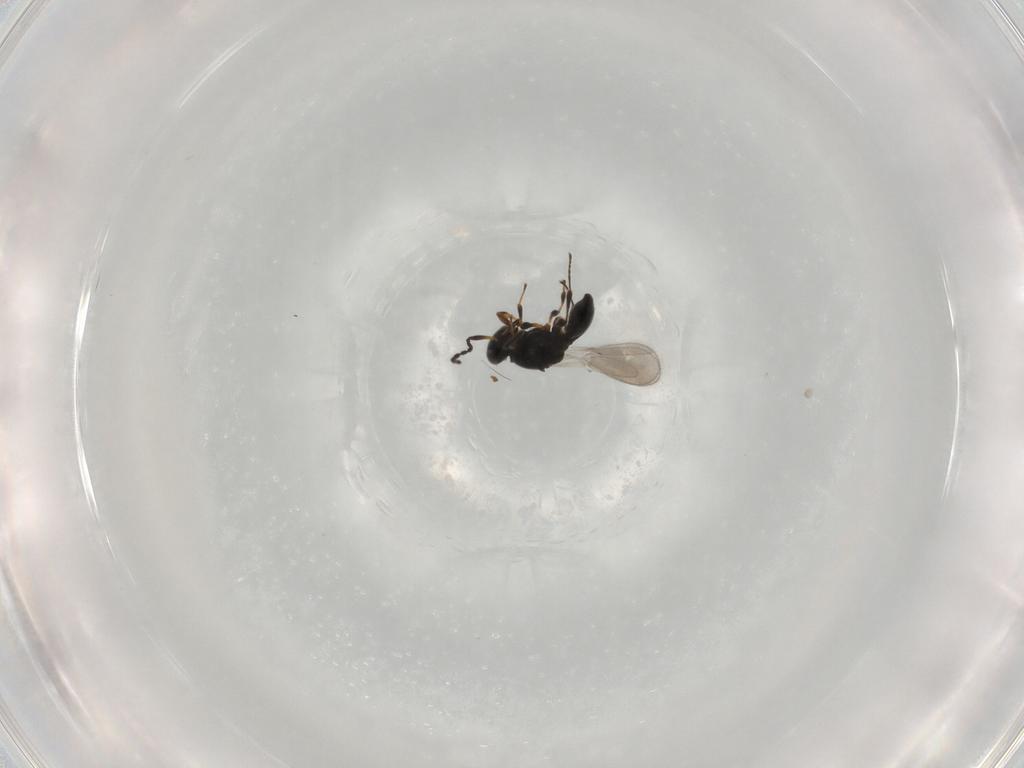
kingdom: Animalia
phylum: Arthropoda
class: Insecta
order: Hymenoptera
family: Platygastridae
